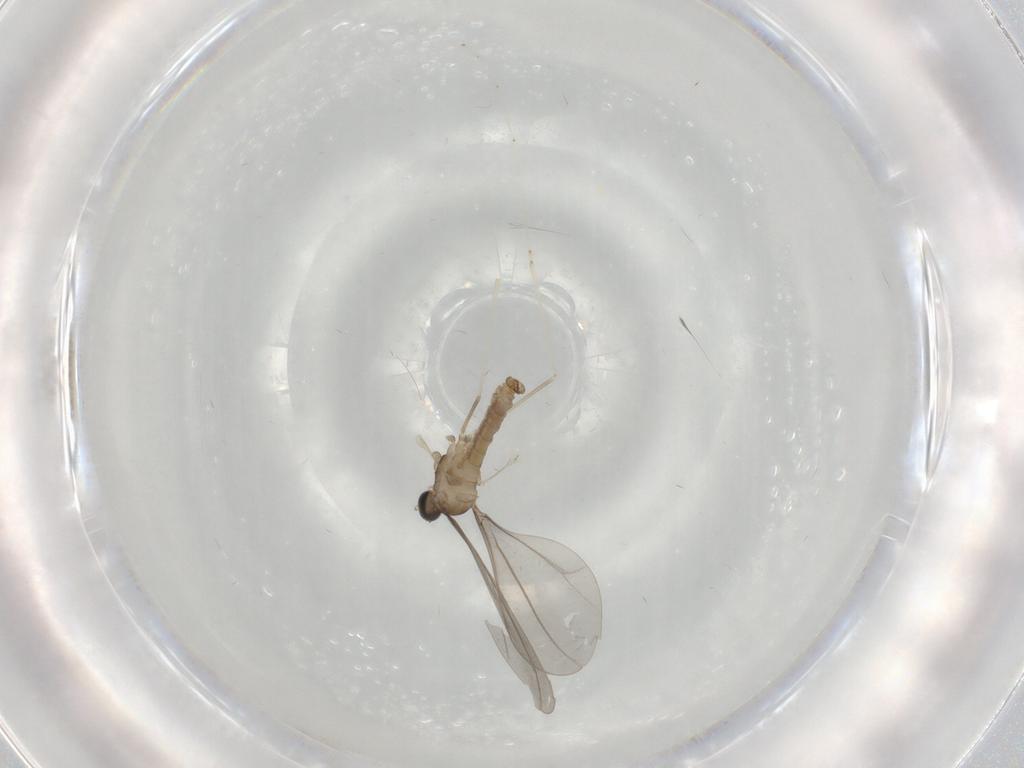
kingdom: Animalia
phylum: Arthropoda
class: Insecta
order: Diptera
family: Cecidomyiidae
